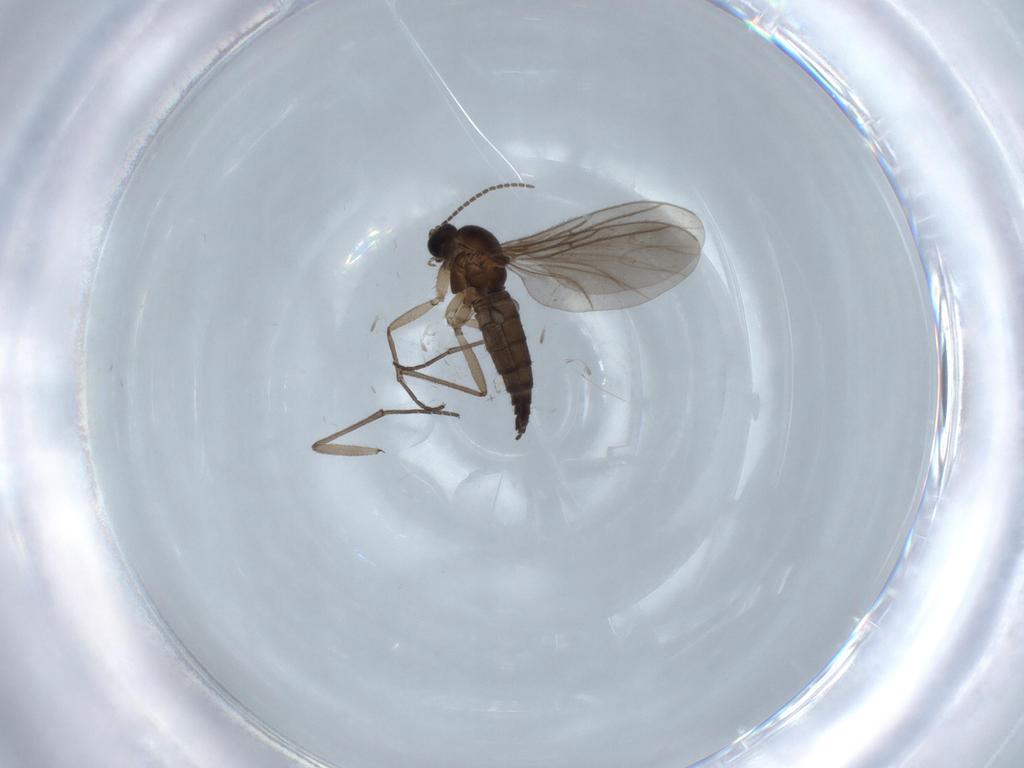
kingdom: Animalia
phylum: Arthropoda
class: Insecta
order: Diptera
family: Sciaridae
